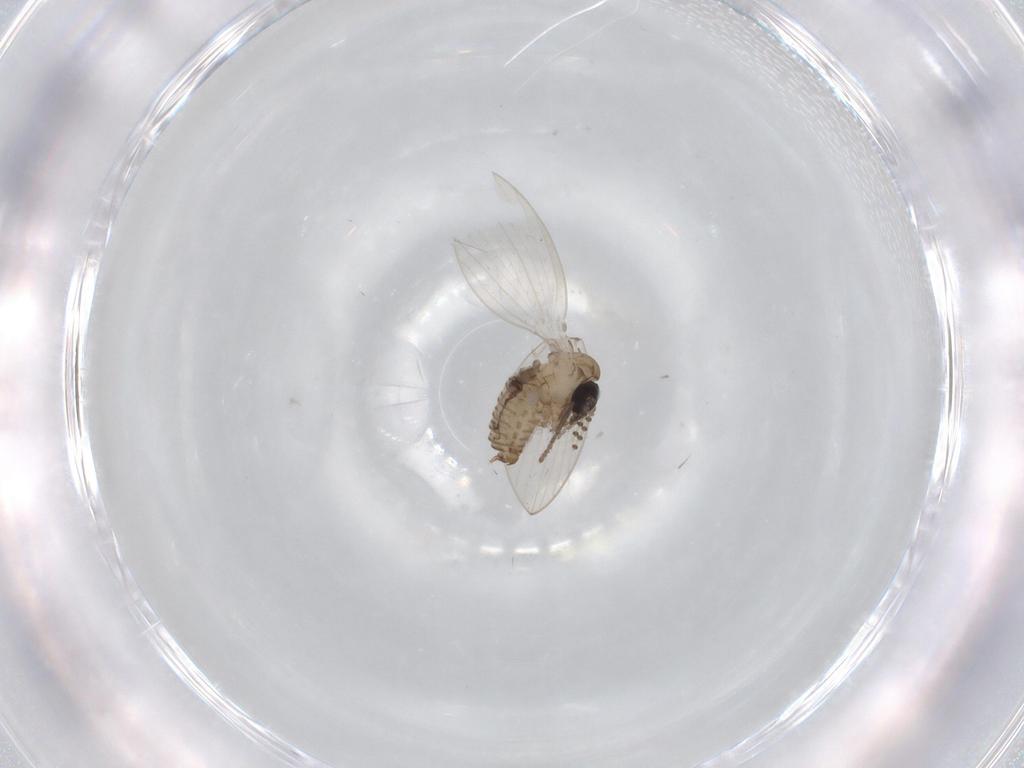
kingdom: Animalia
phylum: Arthropoda
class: Insecta
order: Diptera
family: Psychodidae
